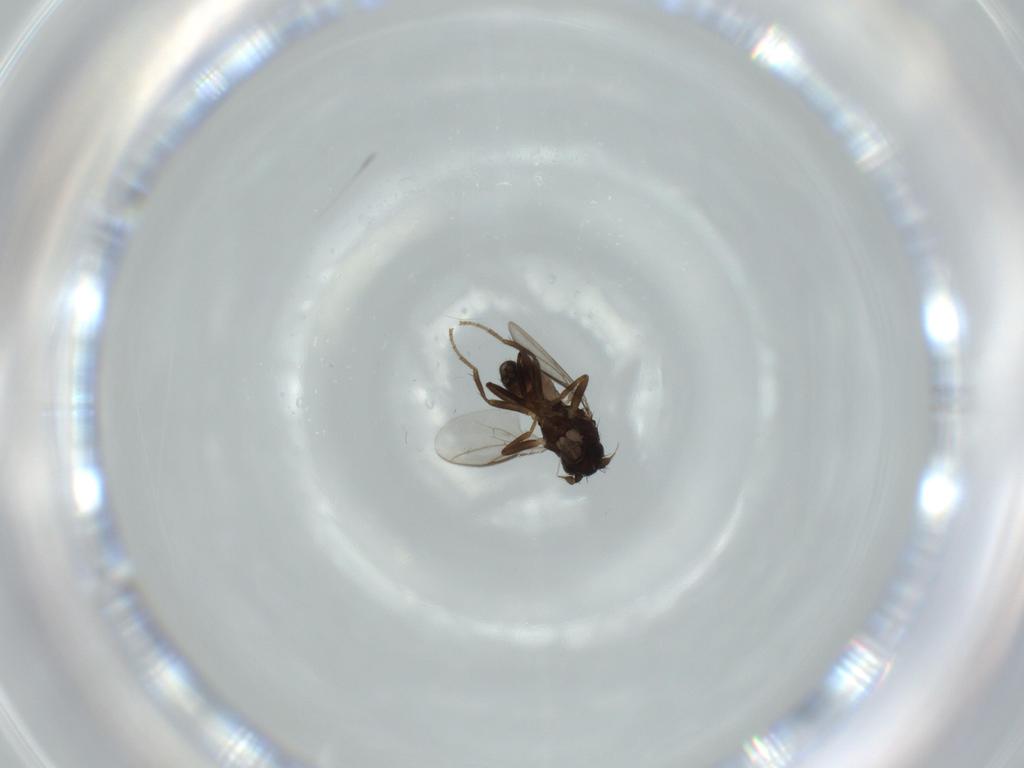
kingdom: Animalia
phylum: Arthropoda
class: Insecta
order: Diptera
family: Sphaeroceridae
